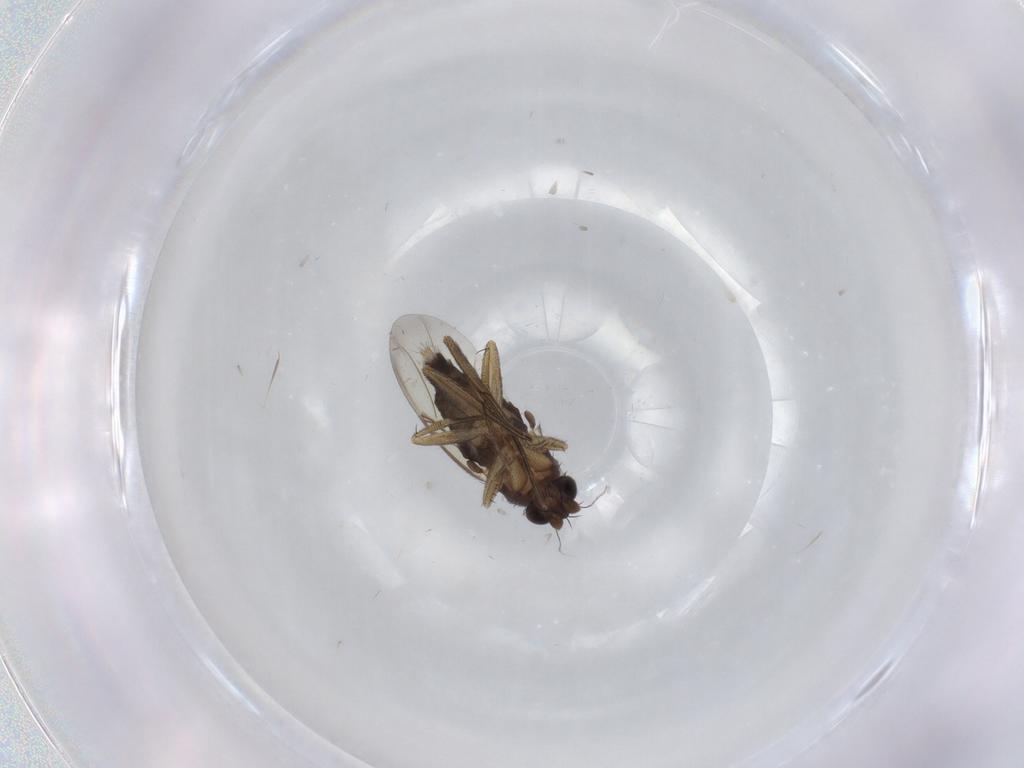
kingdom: Animalia
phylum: Arthropoda
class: Insecta
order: Diptera
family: Phoridae
